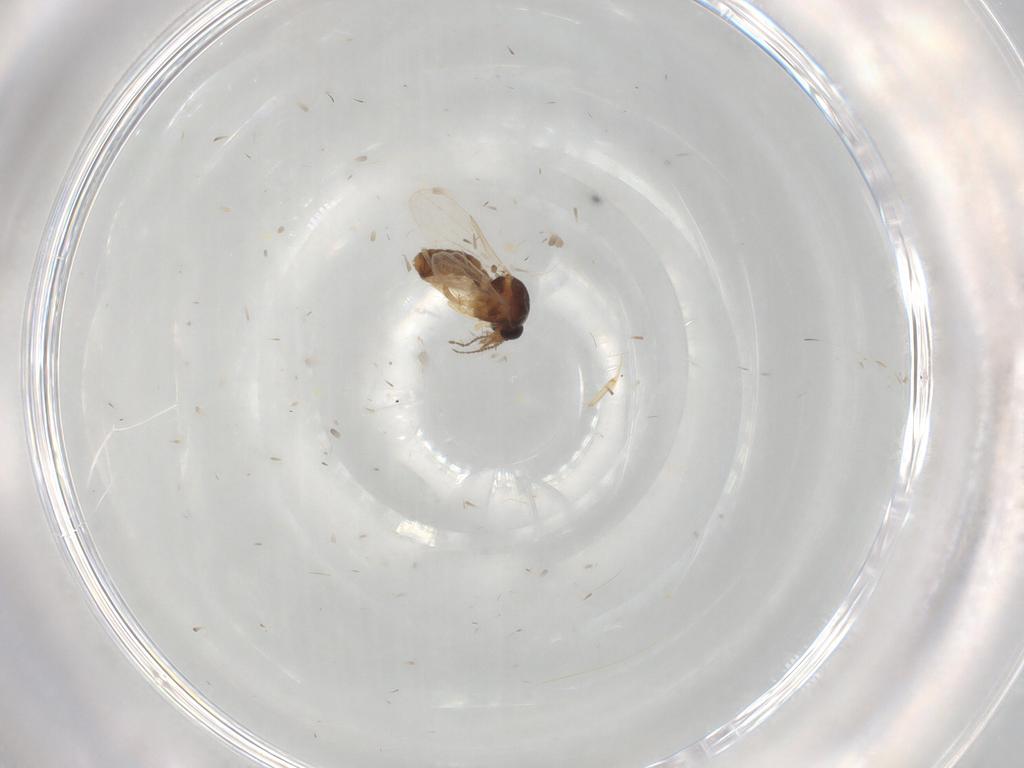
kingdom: Animalia
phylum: Arthropoda
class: Insecta
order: Diptera
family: Ceratopogonidae
